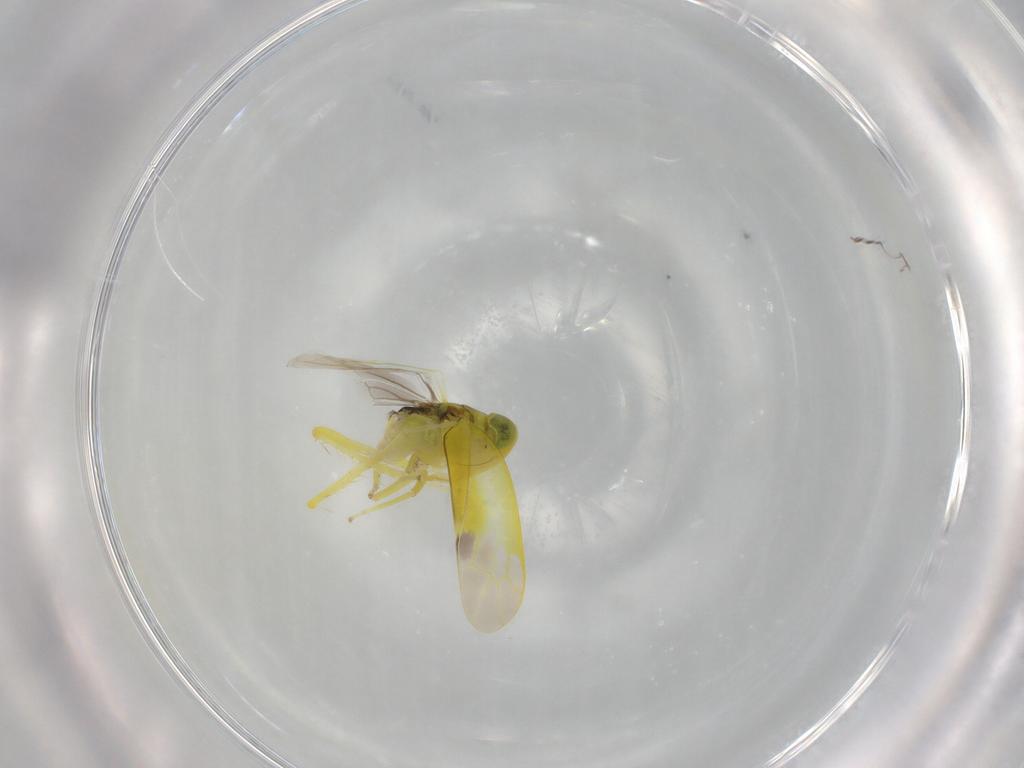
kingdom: Animalia
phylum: Arthropoda
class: Insecta
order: Hemiptera
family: Cicadellidae
